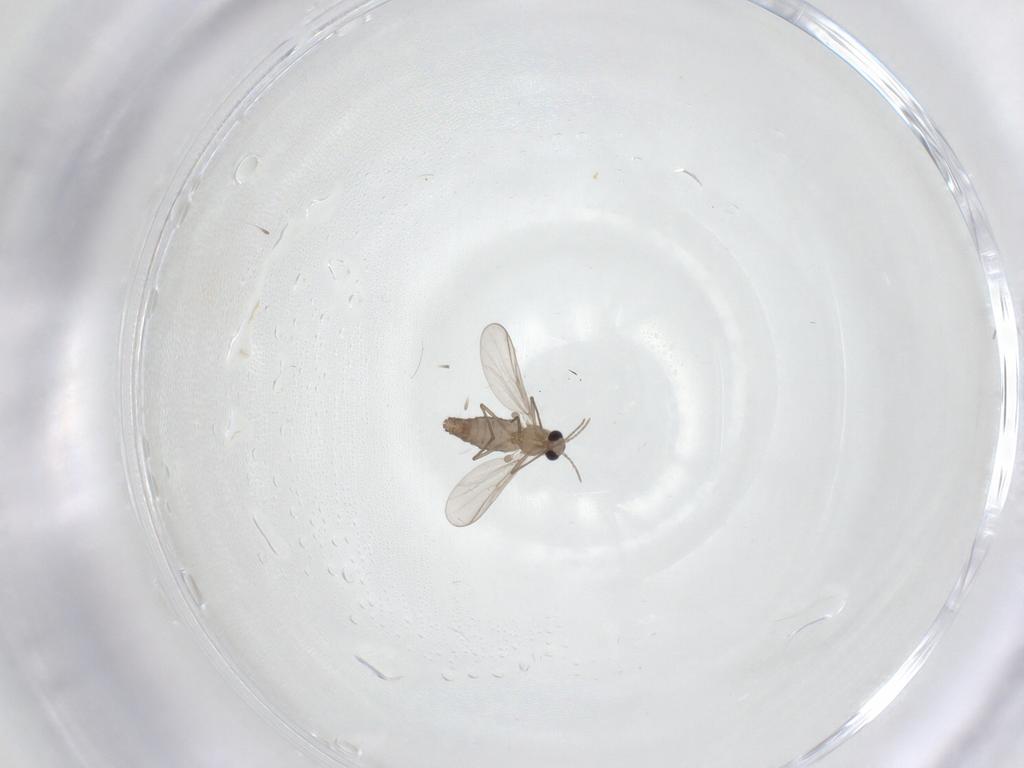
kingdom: Animalia
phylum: Arthropoda
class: Insecta
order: Diptera
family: Chironomidae
